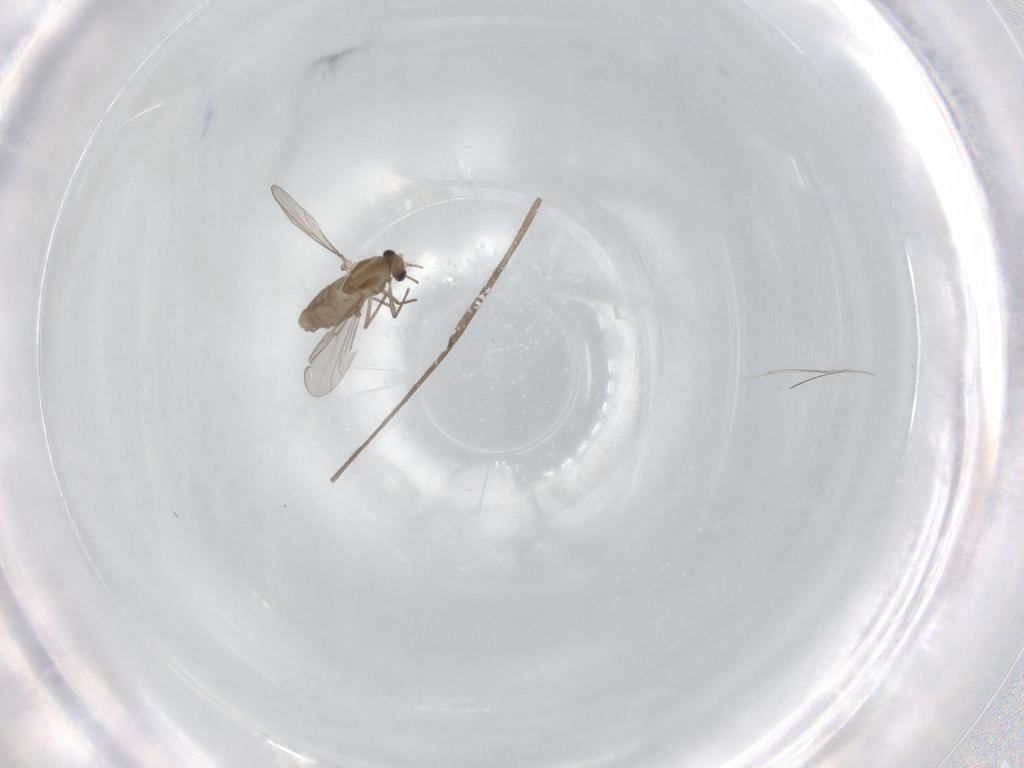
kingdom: Animalia
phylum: Arthropoda
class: Insecta
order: Diptera
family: Chironomidae
